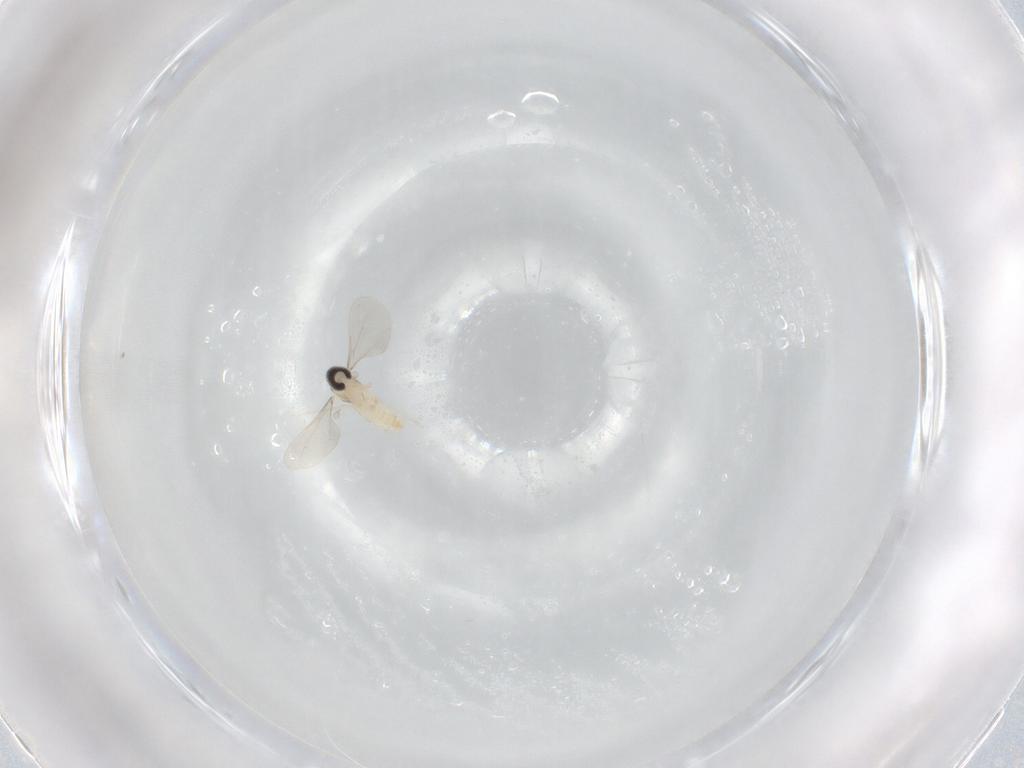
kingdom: Animalia
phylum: Arthropoda
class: Insecta
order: Diptera
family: Cecidomyiidae
